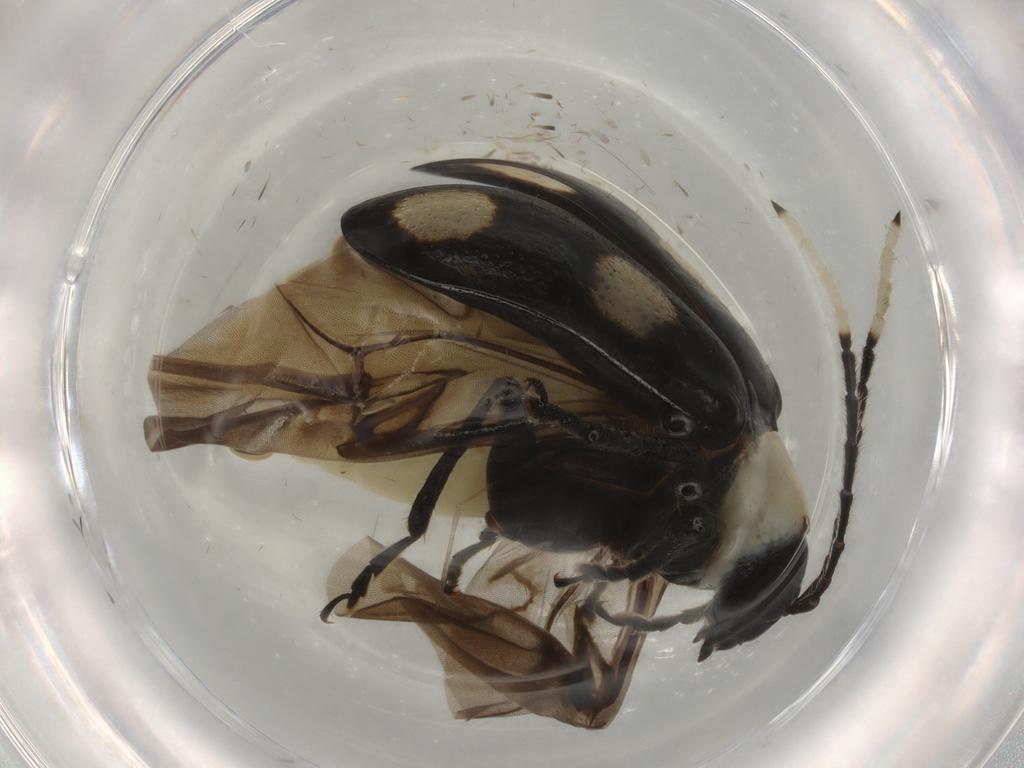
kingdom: Animalia
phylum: Arthropoda
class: Insecta
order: Coleoptera
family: Chrysomelidae
